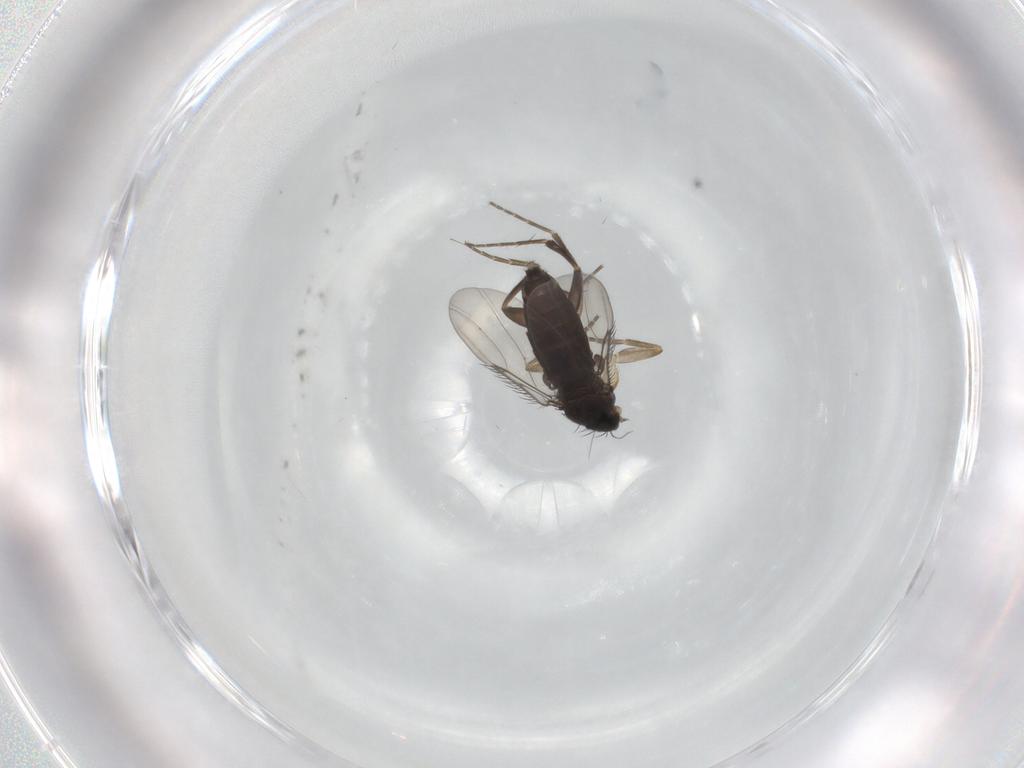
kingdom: Animalia
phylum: Arthropoda
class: Insecta
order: Diptera
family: Phoridae
